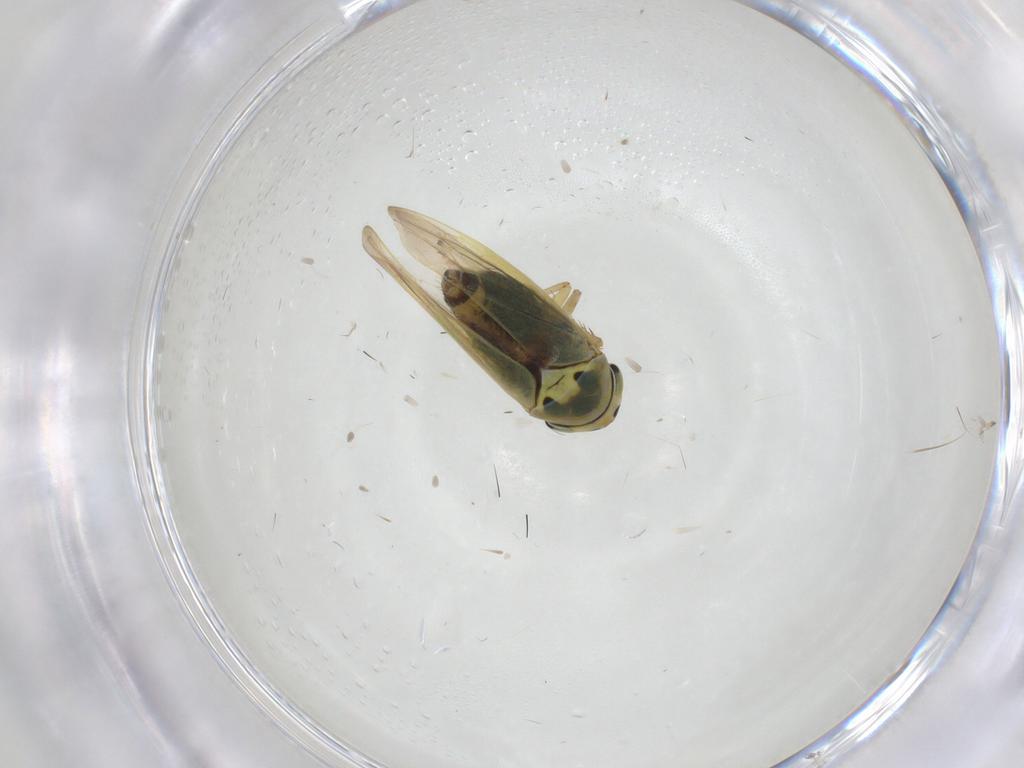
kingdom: Animalia
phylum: Arthropoda
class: Insecta
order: Hemiptera
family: Cicadellidae
